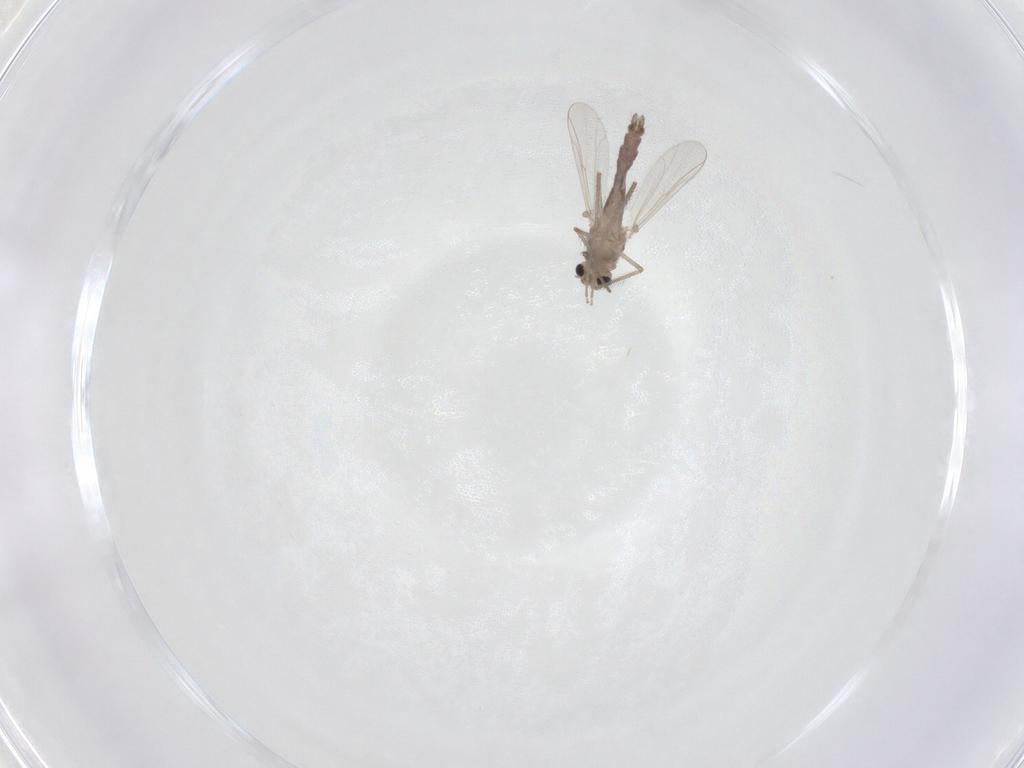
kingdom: Animalia
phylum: Arthropoda
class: Insecta
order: Diptera
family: Chironomidae
